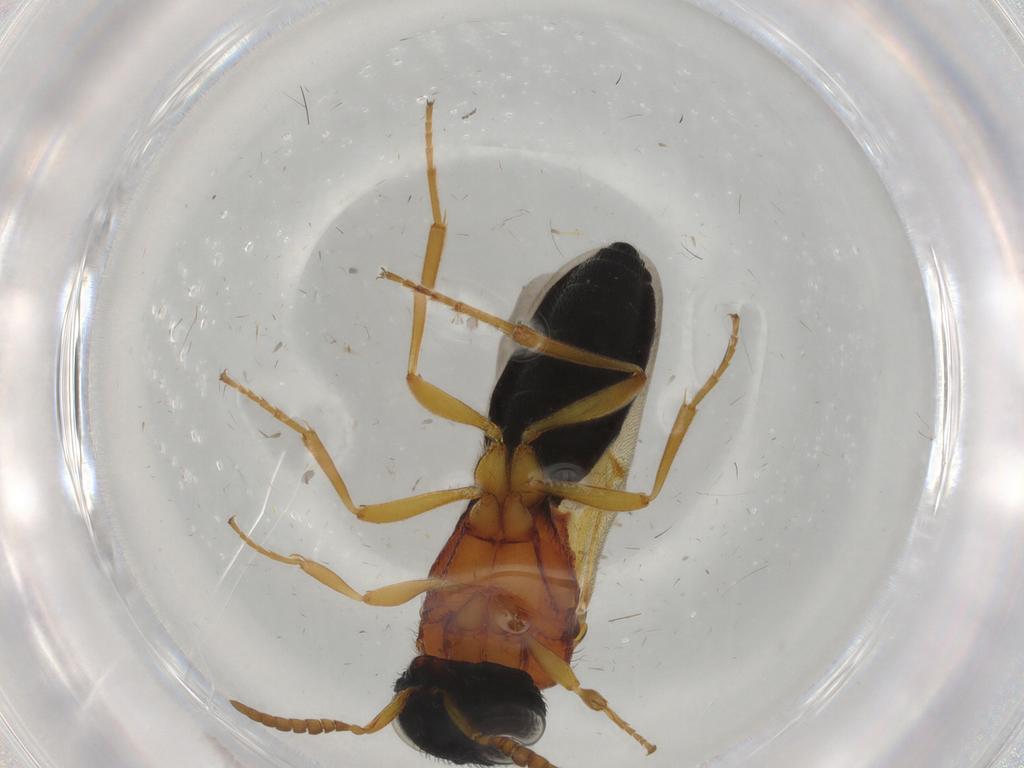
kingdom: Animalia
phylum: Arthropoda
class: Insecta
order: Hymenoptera
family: Scelionidae
